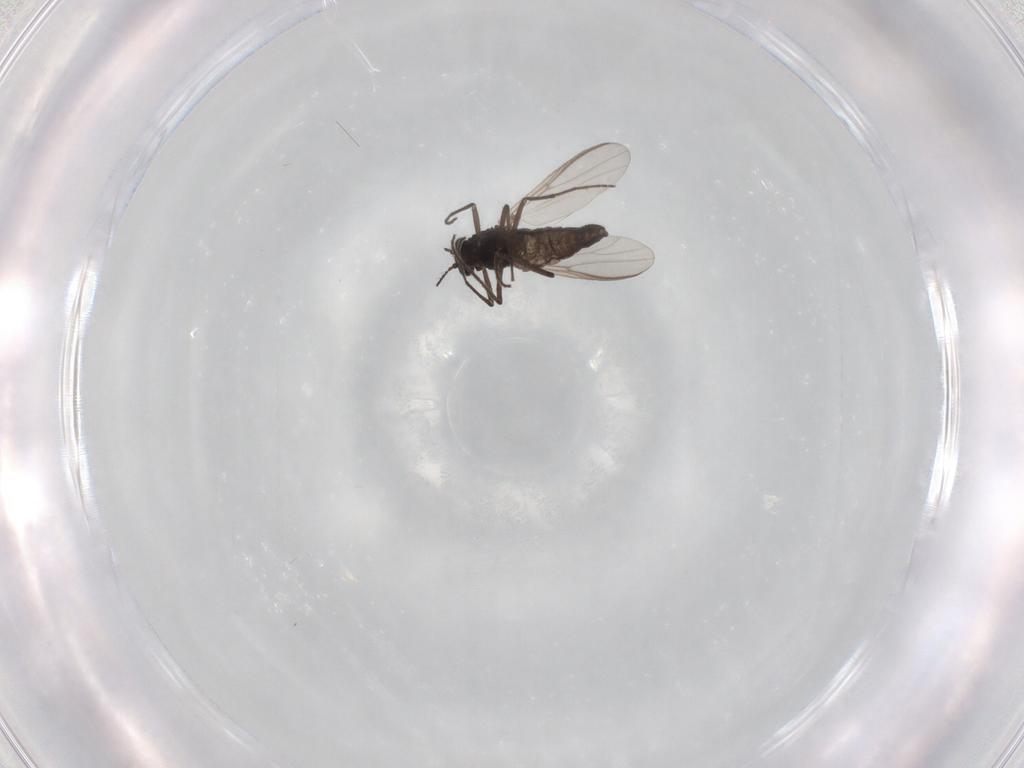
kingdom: Animalia
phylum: Arthropoda
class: Insecta
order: Diptera
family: Chironomidae
